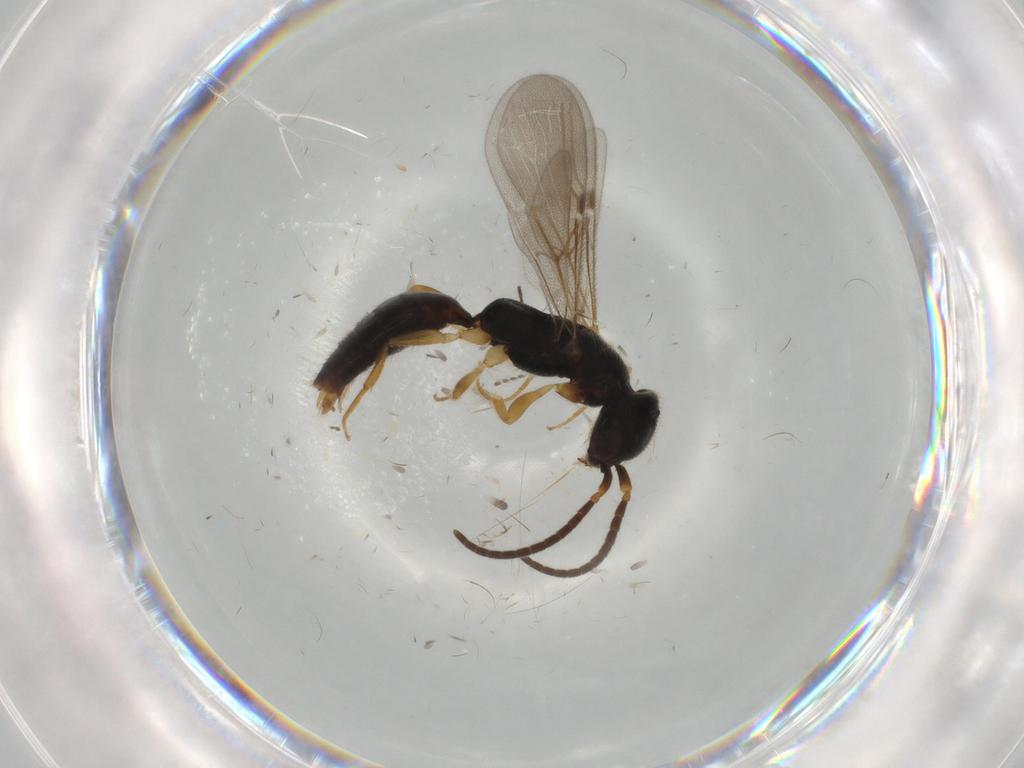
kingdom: Animalia
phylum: Arthropoda
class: Insecta
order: Hymenoptera
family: Bethylidae
